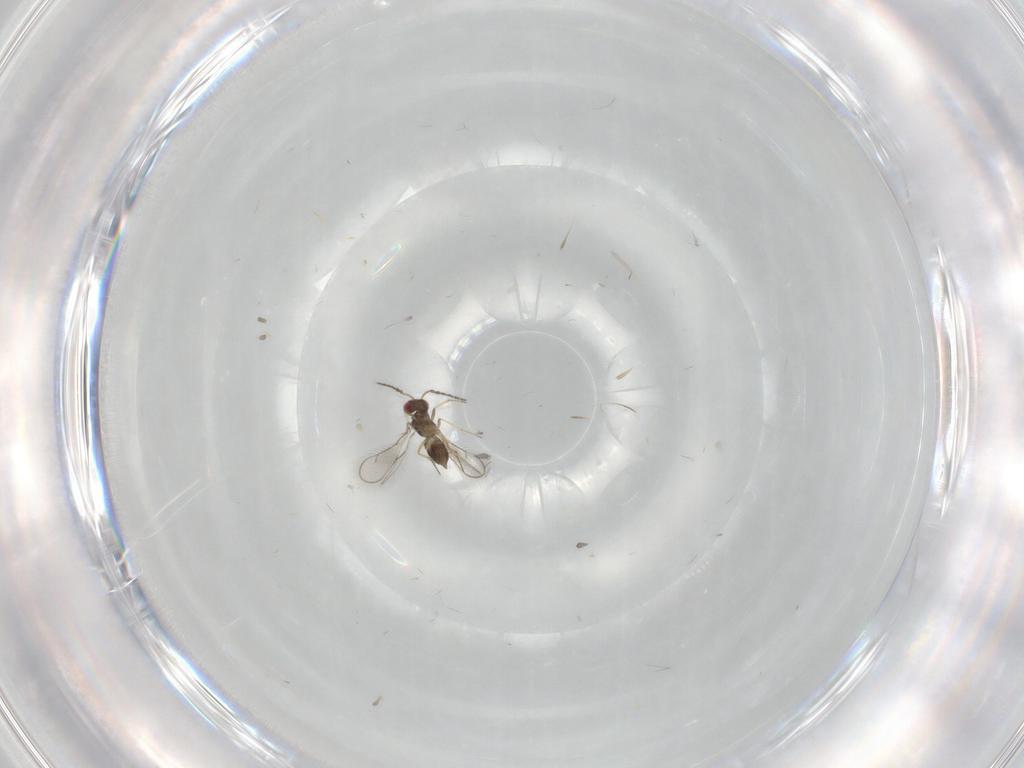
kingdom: Animalia
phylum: Arthropoda
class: Insecta
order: Hymenoptera
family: Eulophidae
